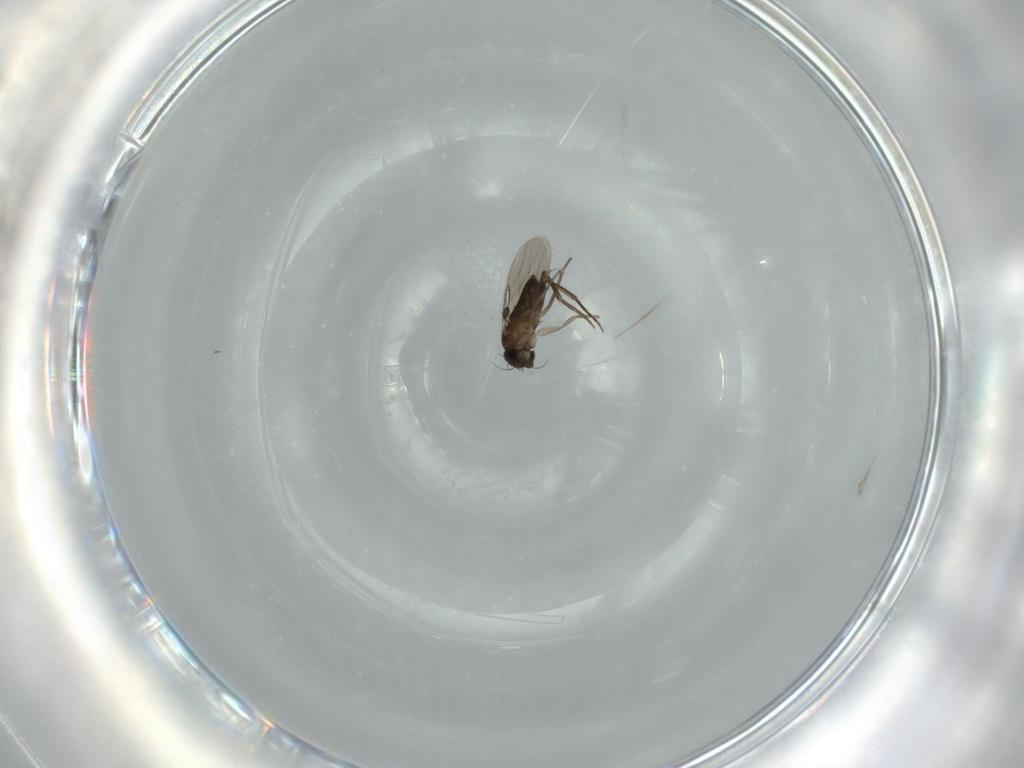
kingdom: Animalia
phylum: Arthropoda
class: Insecta
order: Diptera
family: Phoridae
